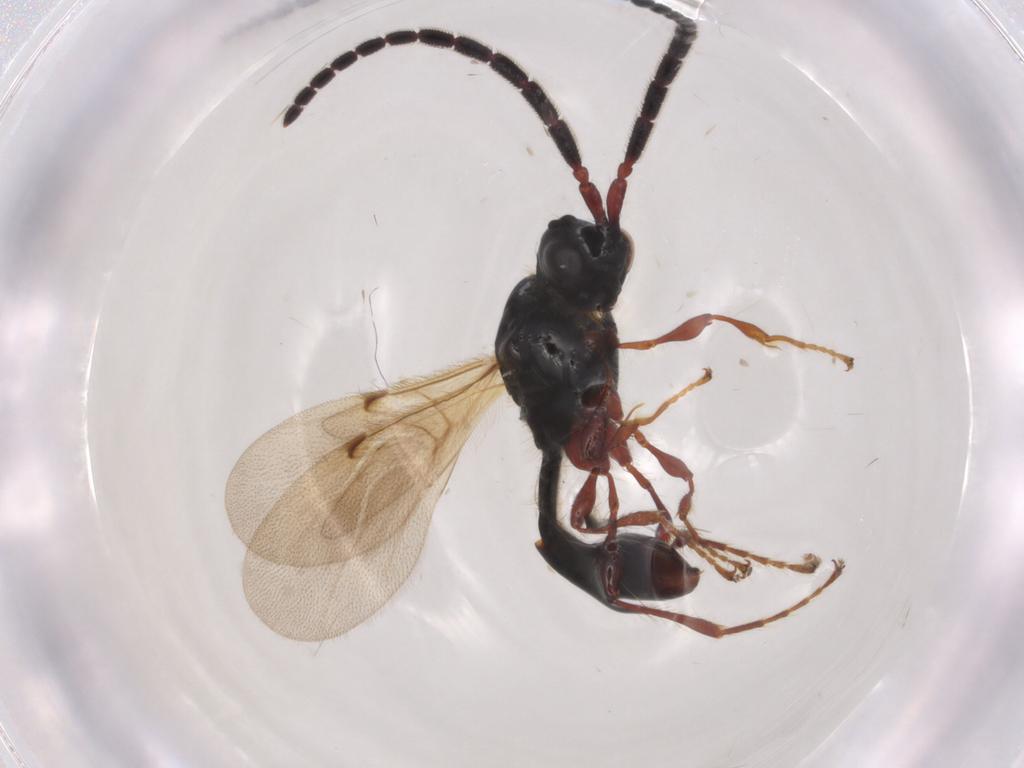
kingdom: Animalia
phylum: Arthropoda
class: Insecta
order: Hymenoptera
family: Diapriidae
